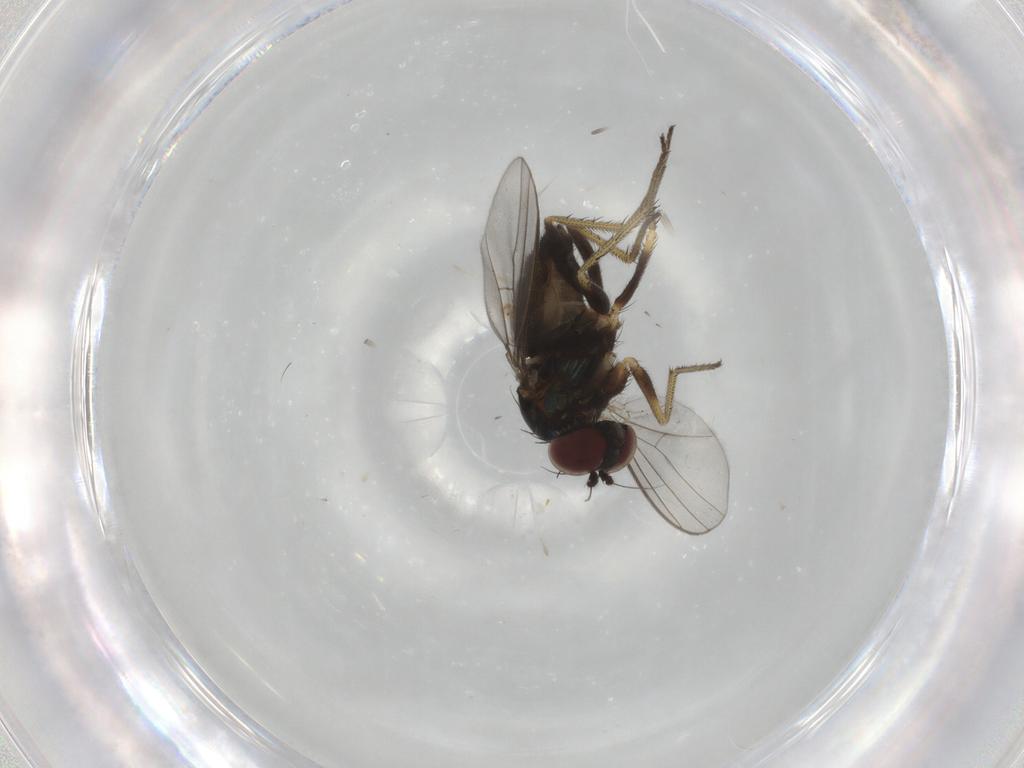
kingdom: Animalia
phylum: Arthropoda
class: Insecta
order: Diptera
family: Dolichopodidae
